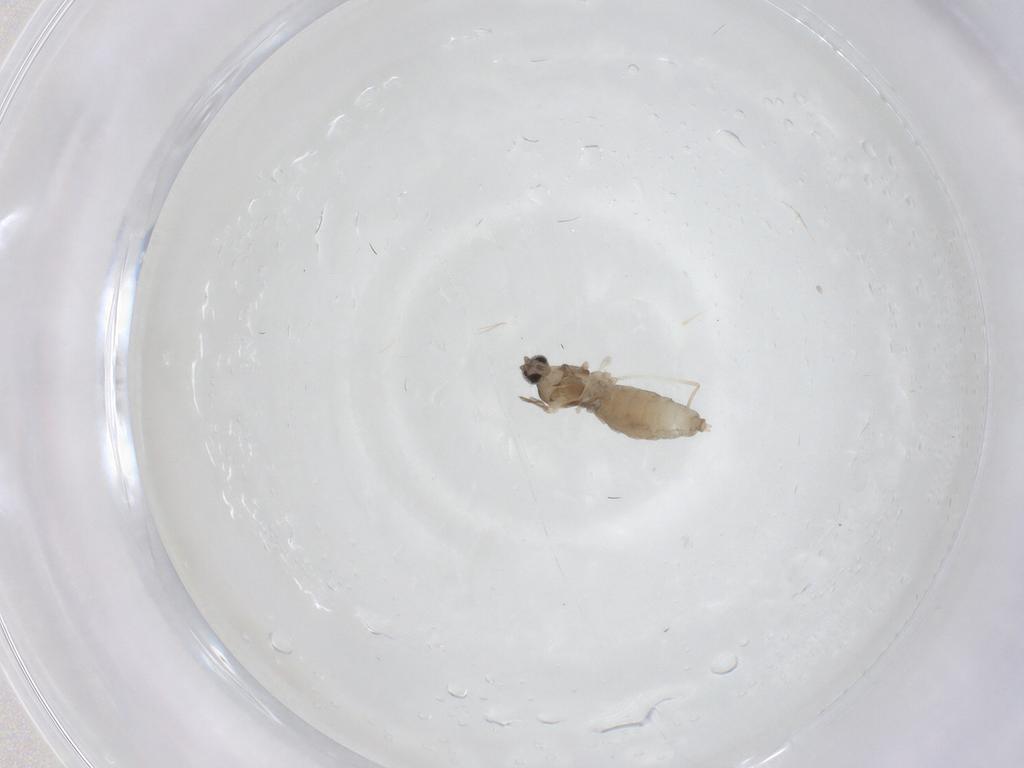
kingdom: Animalia
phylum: Arthropoda
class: Insecta
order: Diptera
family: Cecidomyiidae
